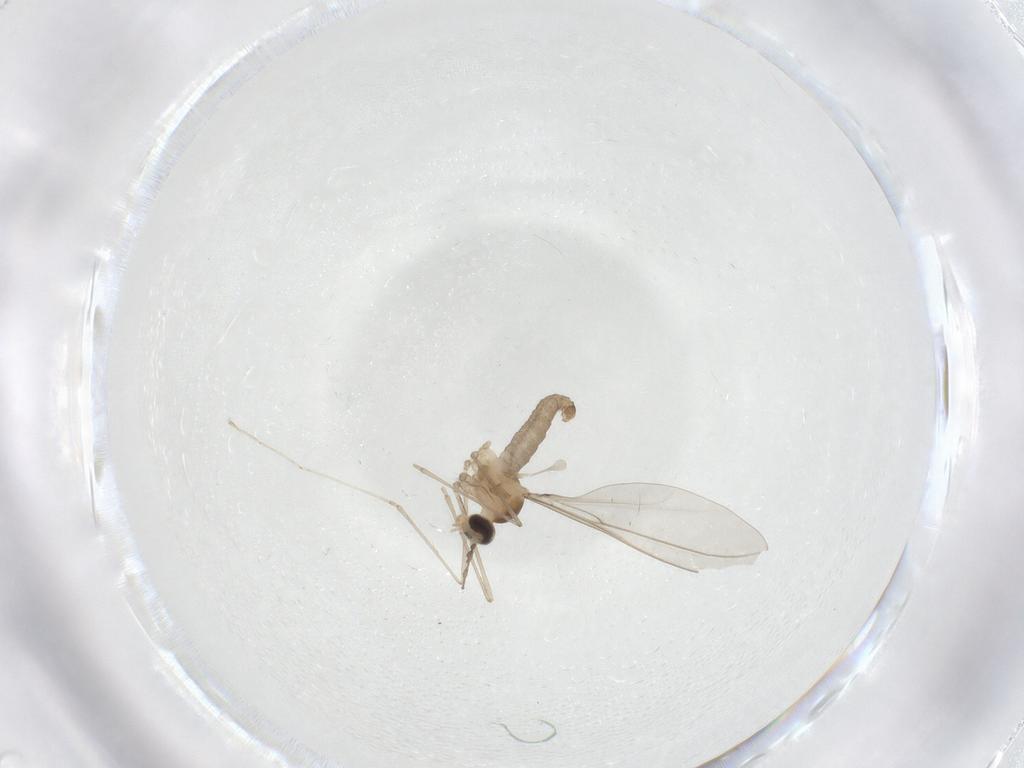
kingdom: Animalia
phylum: Arthropoda
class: Insecta
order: Diptera
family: Cecidomyiidae
